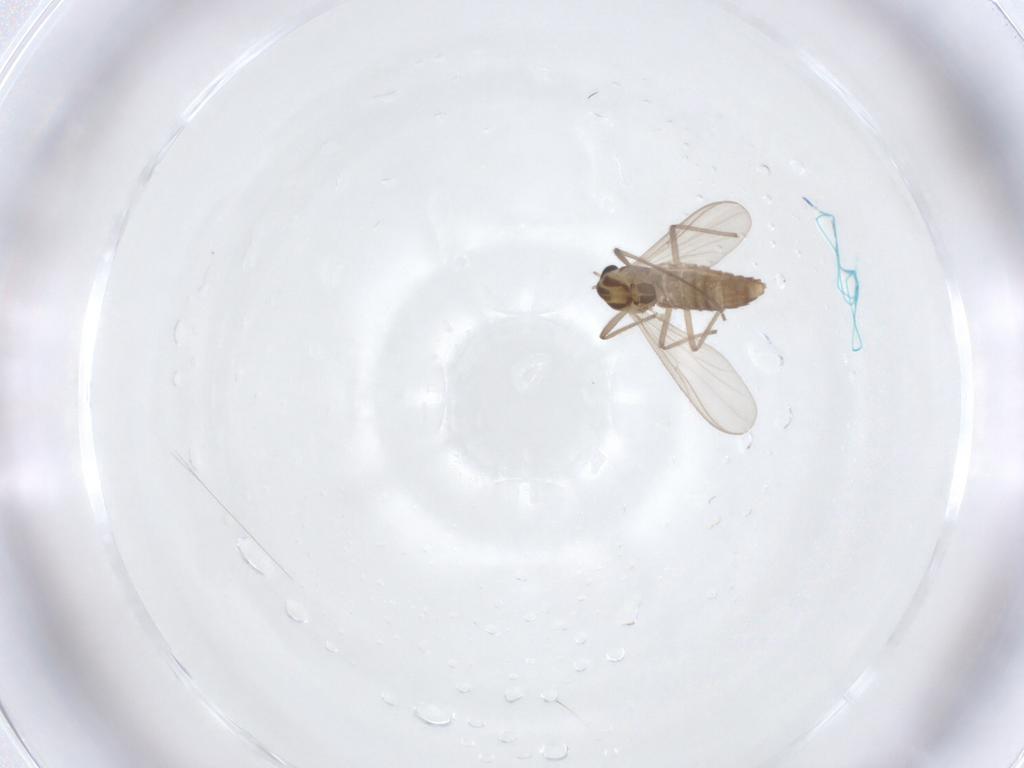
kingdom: Animalia
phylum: Arthropoda
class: Insecta
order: Diptera
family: Chironomidae
